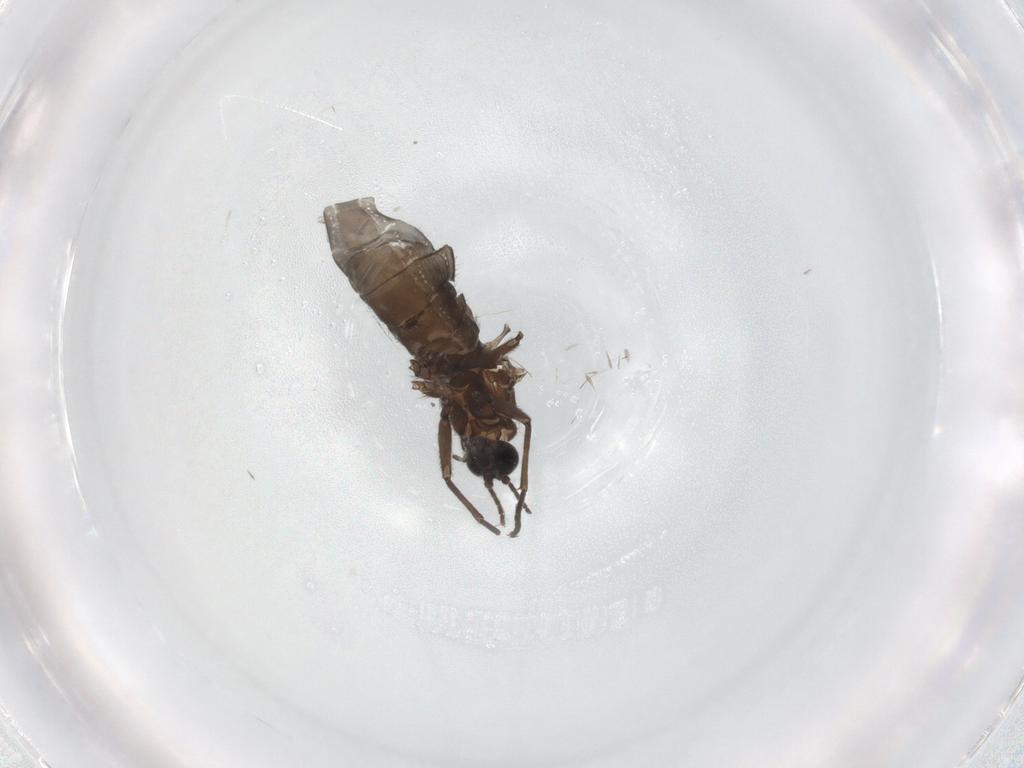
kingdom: Animalia
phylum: Arthropoda
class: Insecta
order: Diptera
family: Sciaridae
